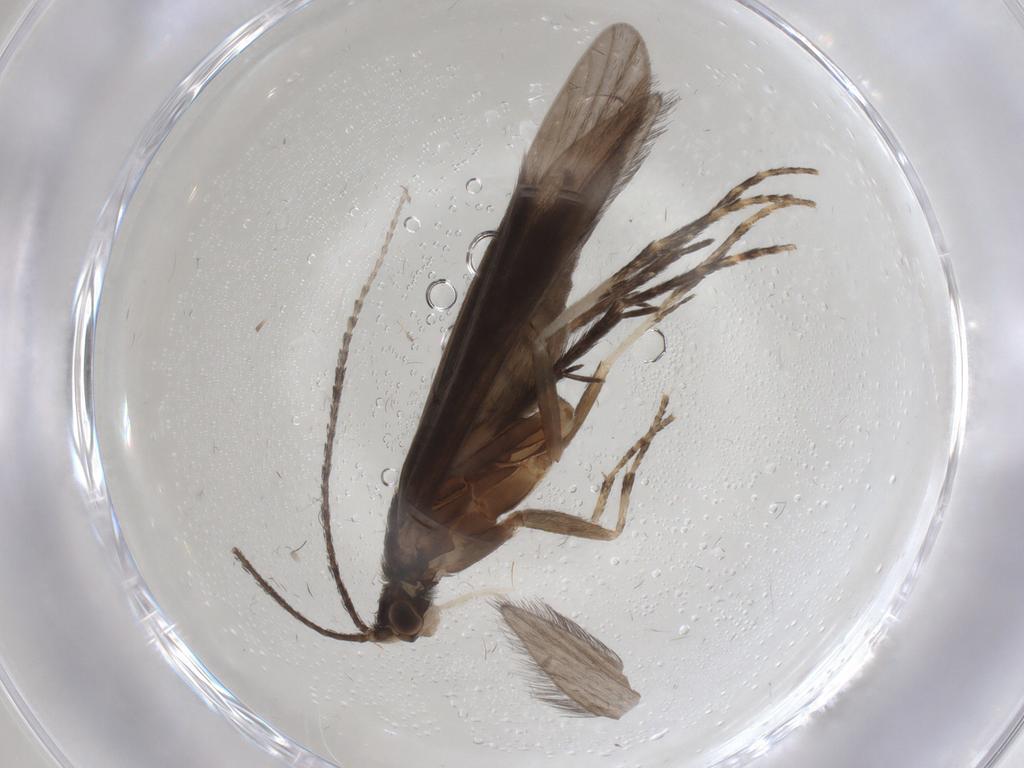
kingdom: Animalia
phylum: Arthropoda
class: Insecta
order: Trichoptera
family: Xiphocentronidae
